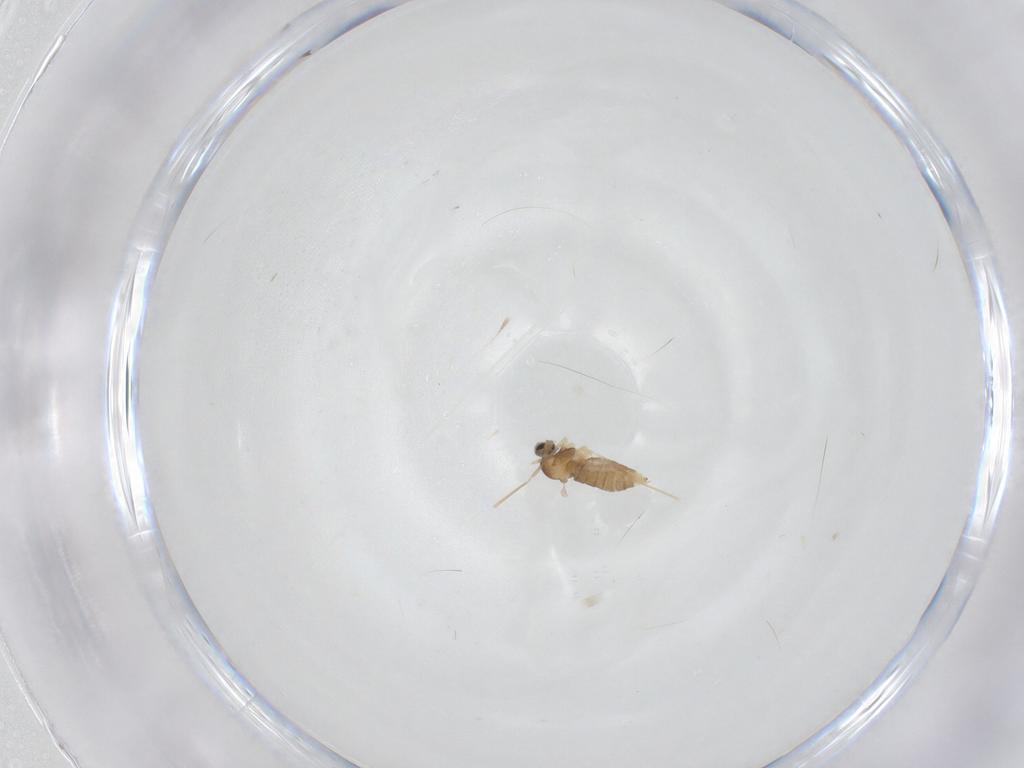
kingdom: Animalia
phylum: Arthropoda
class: Insecta
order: Diptera
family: Cecidomyiidae
